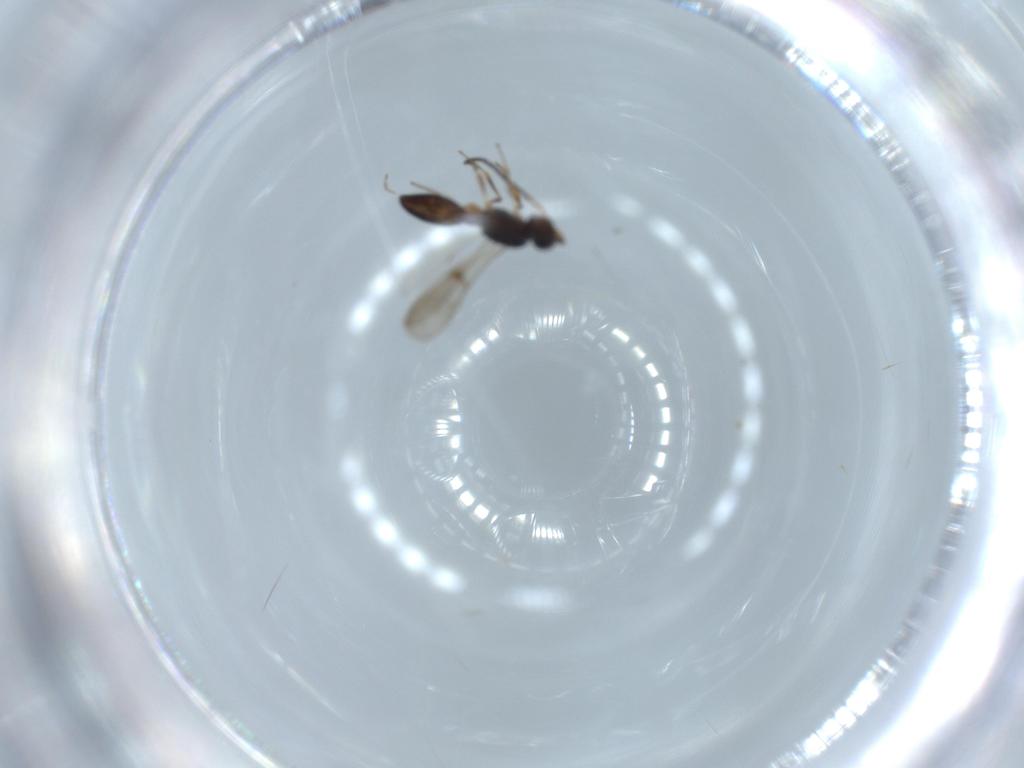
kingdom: Animalia
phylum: Arthropoda
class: Insecta
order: Hymenoptera
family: Scelionidae
